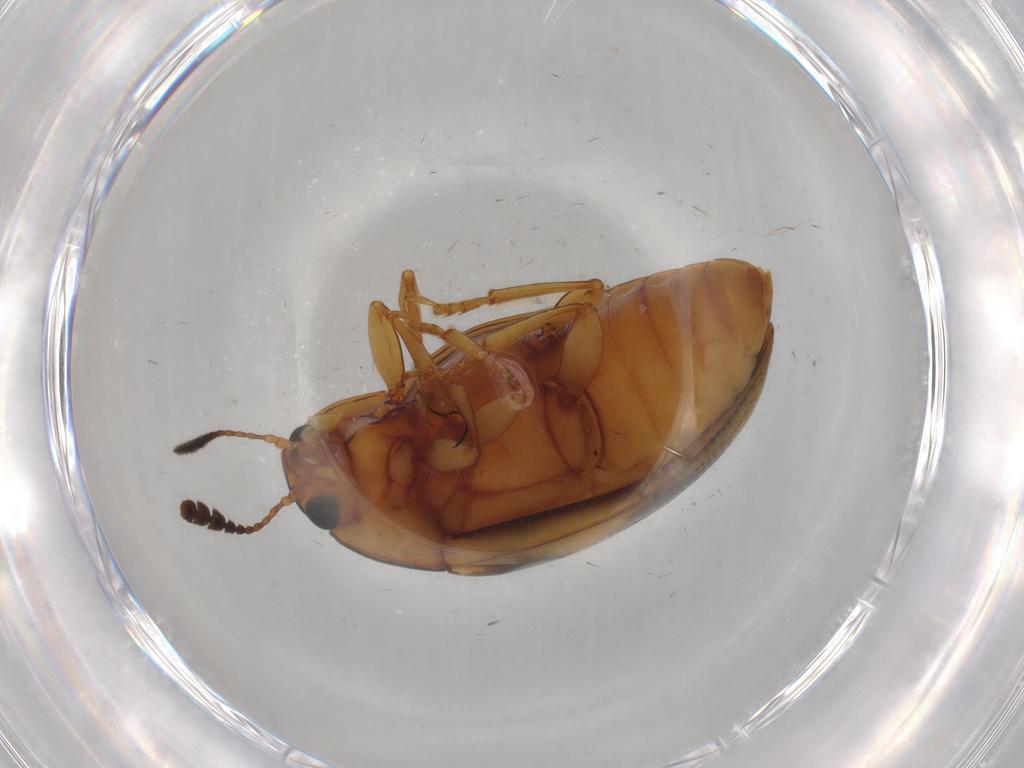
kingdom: Animalia
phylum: Arthropoda
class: Insecta
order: Coleoptera
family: Erotylidae
